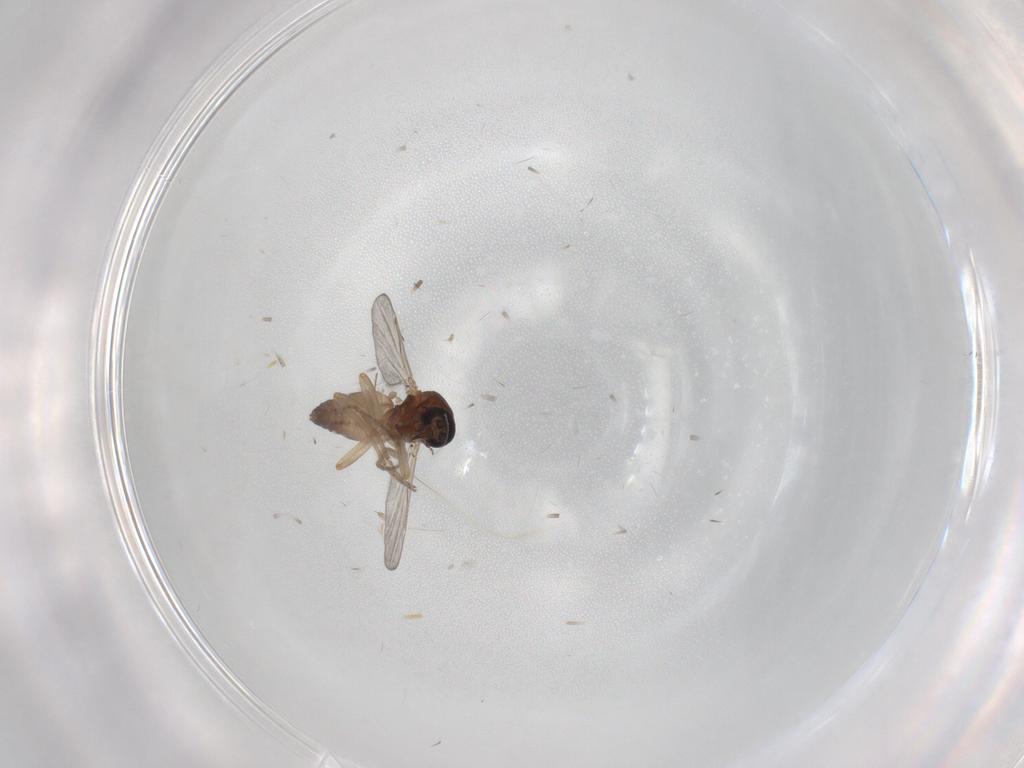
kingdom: Animalia
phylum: Arthropoda
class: Insecta
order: Diptera
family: Ceratopogonidae
